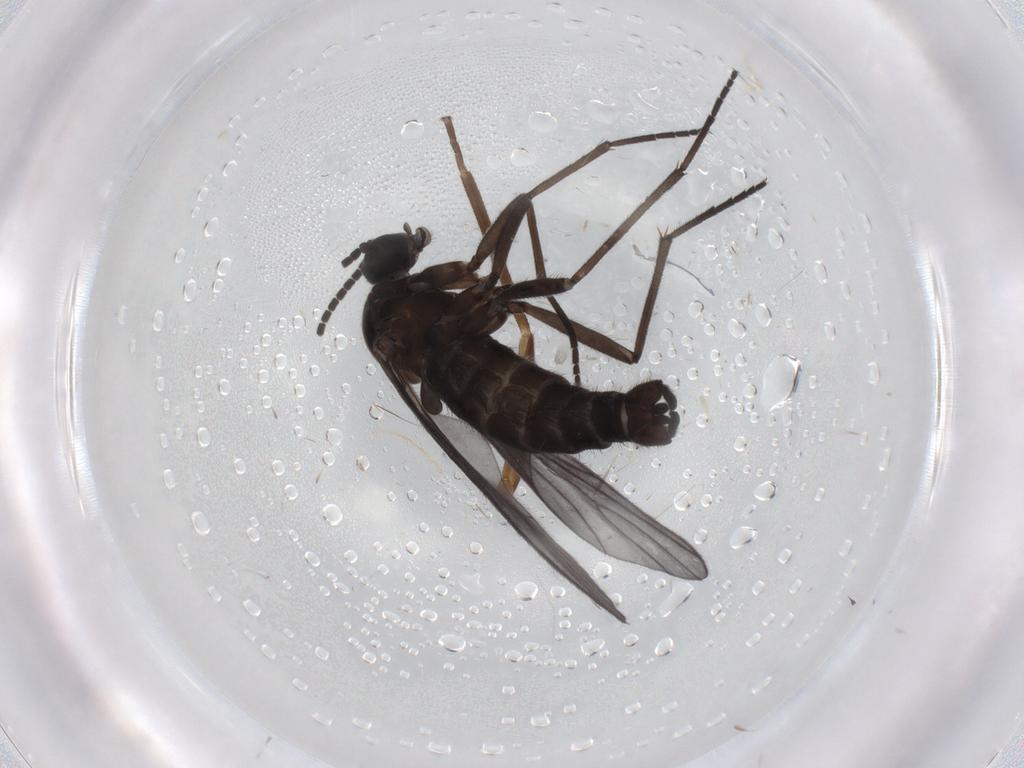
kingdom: Animalia
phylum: Arthropoda
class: Insecta
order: Diptera
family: Sciaridae
